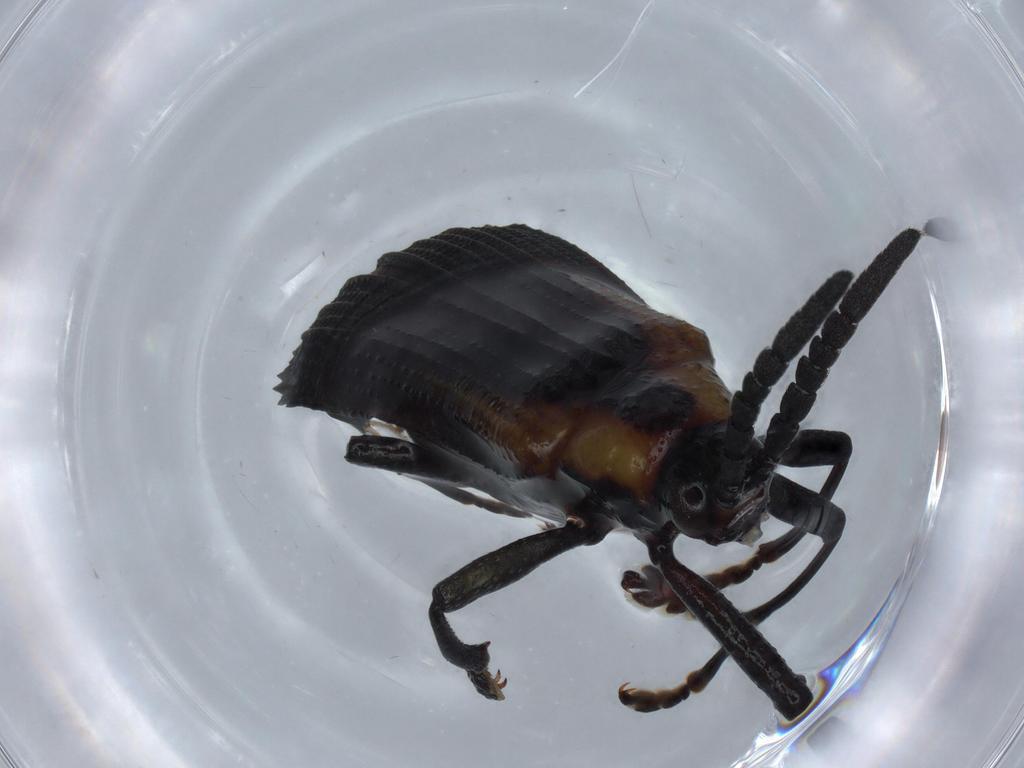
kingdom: Animalia
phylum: Arthropoda
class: Insecta
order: Coleoptera
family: Chrysomelidae
